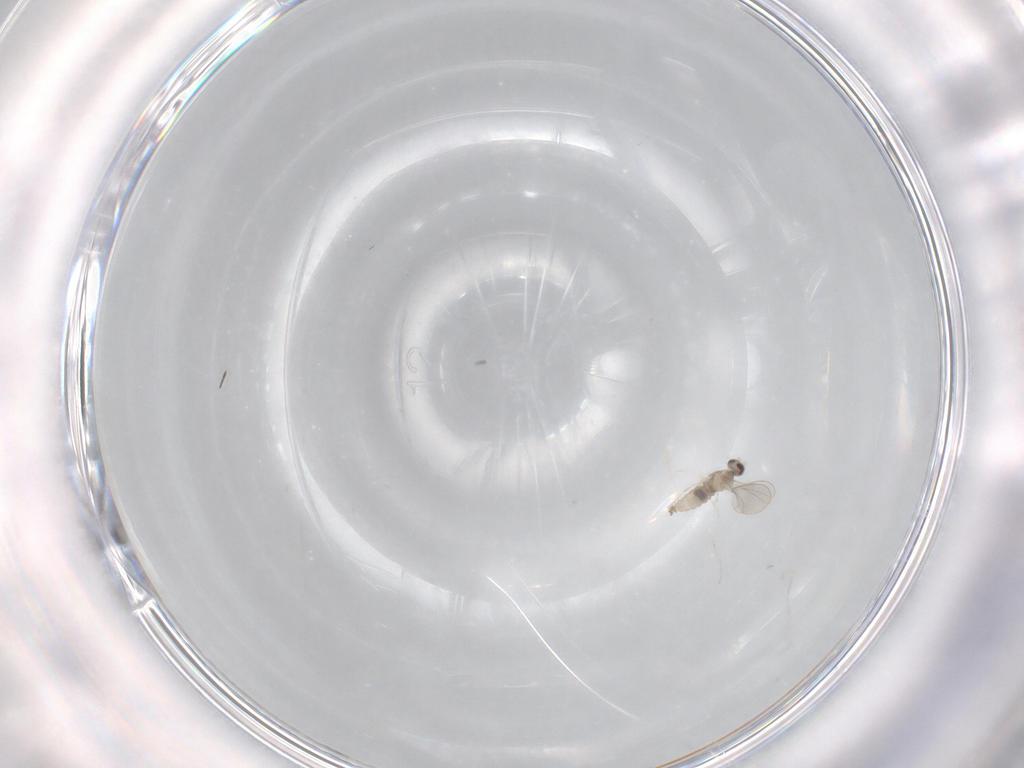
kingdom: Animalia
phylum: Arthropoda
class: Insecta
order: Diptera
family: Cecidomyiidae
